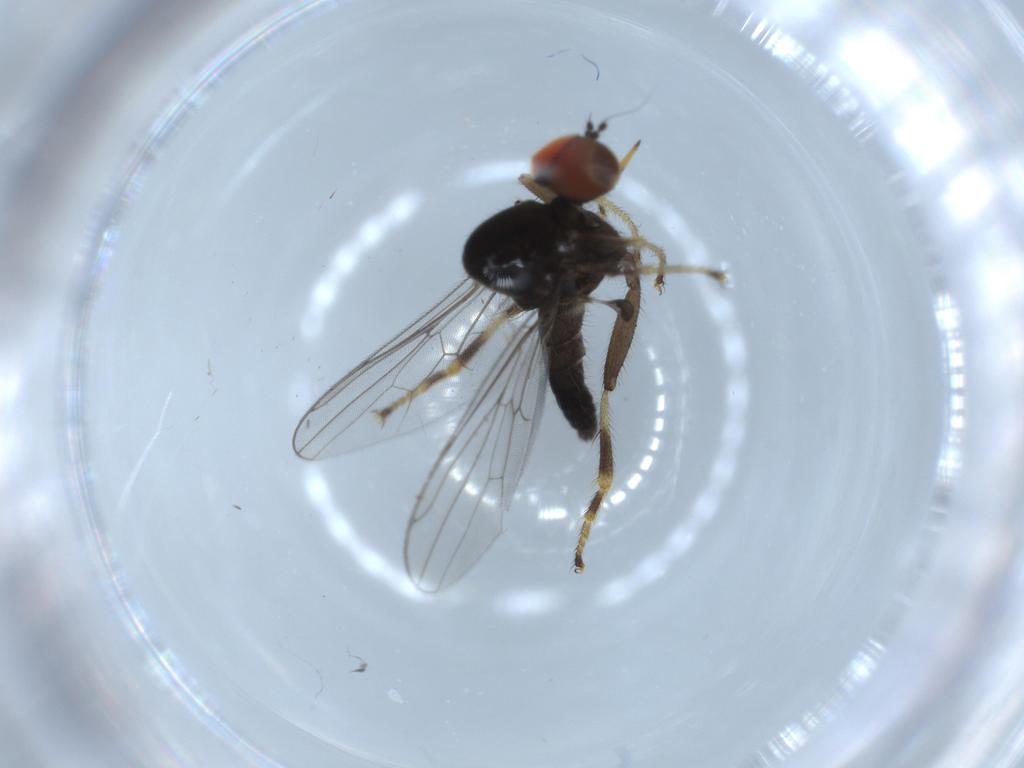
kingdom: Animalia
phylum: Arthropoda
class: Insecta
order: Diptera
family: Hybotidae
